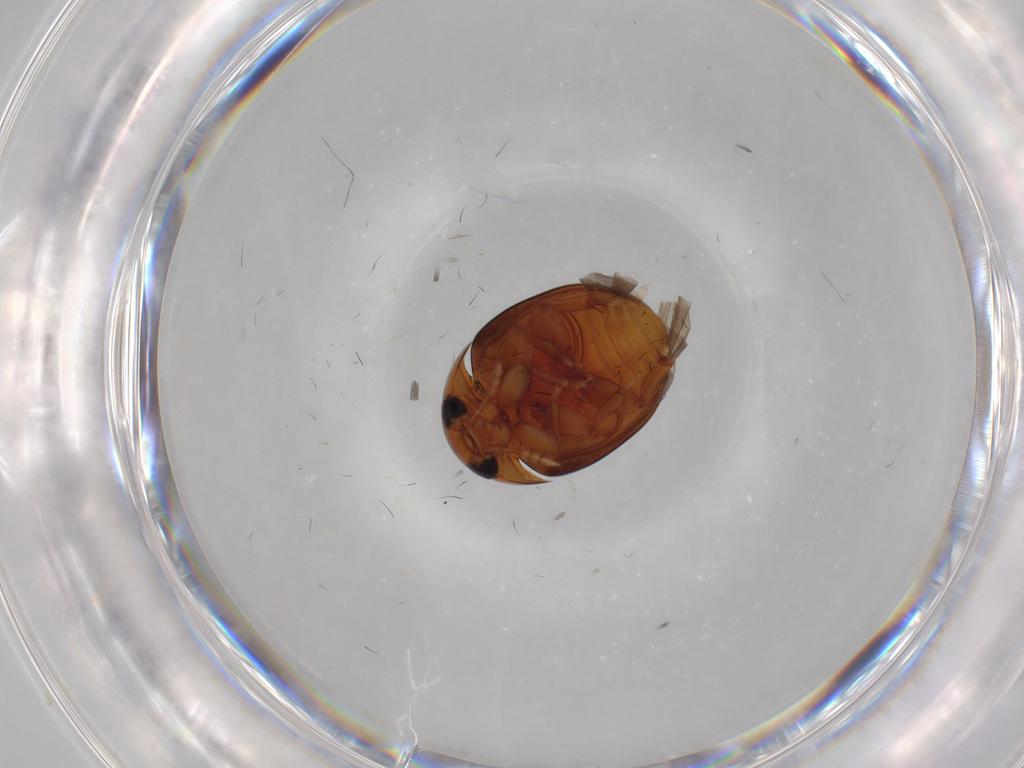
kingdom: Animalia
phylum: Arthropoda
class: Insecta
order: Coleoptera
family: Phalacridae
